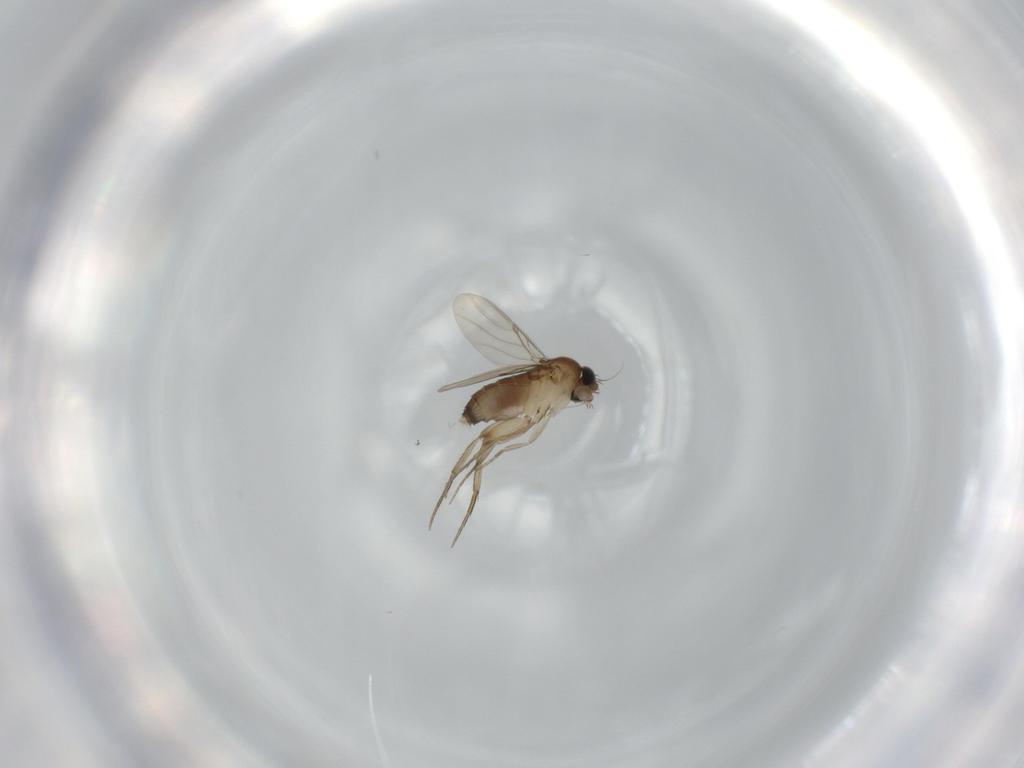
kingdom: Animalia
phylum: Arthropoda
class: Insecta
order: Diptera
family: Phoridae
